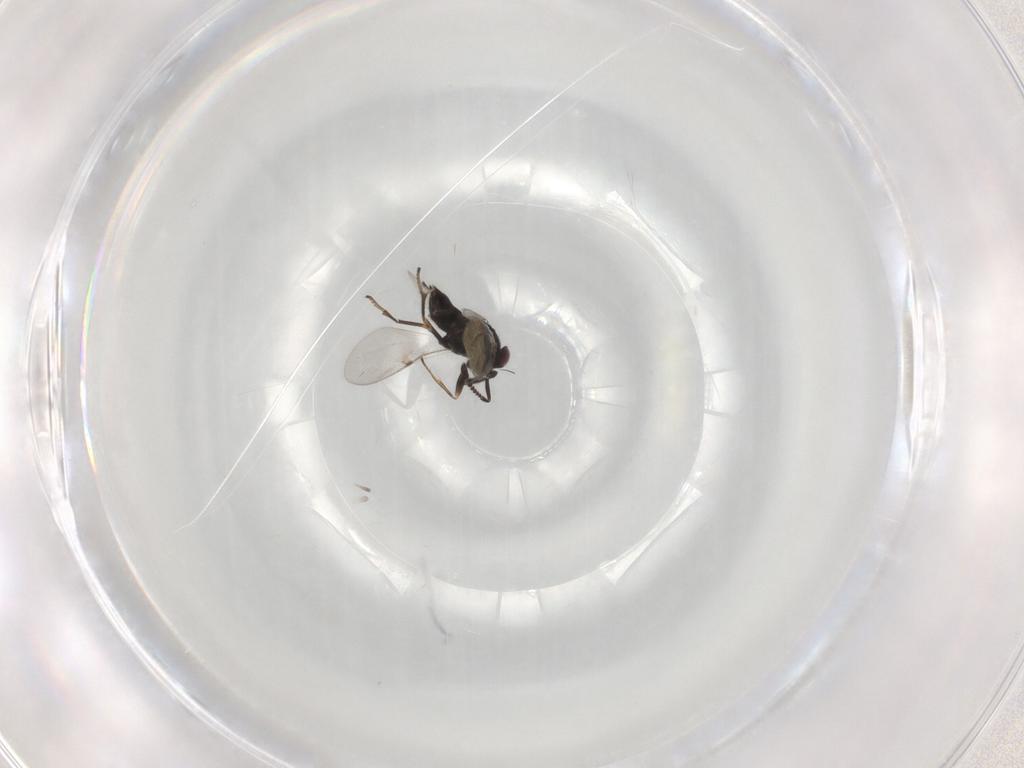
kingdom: Animalia
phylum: Arthropoda
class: Insecta
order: Hymenoptera
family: Encyrtidae
